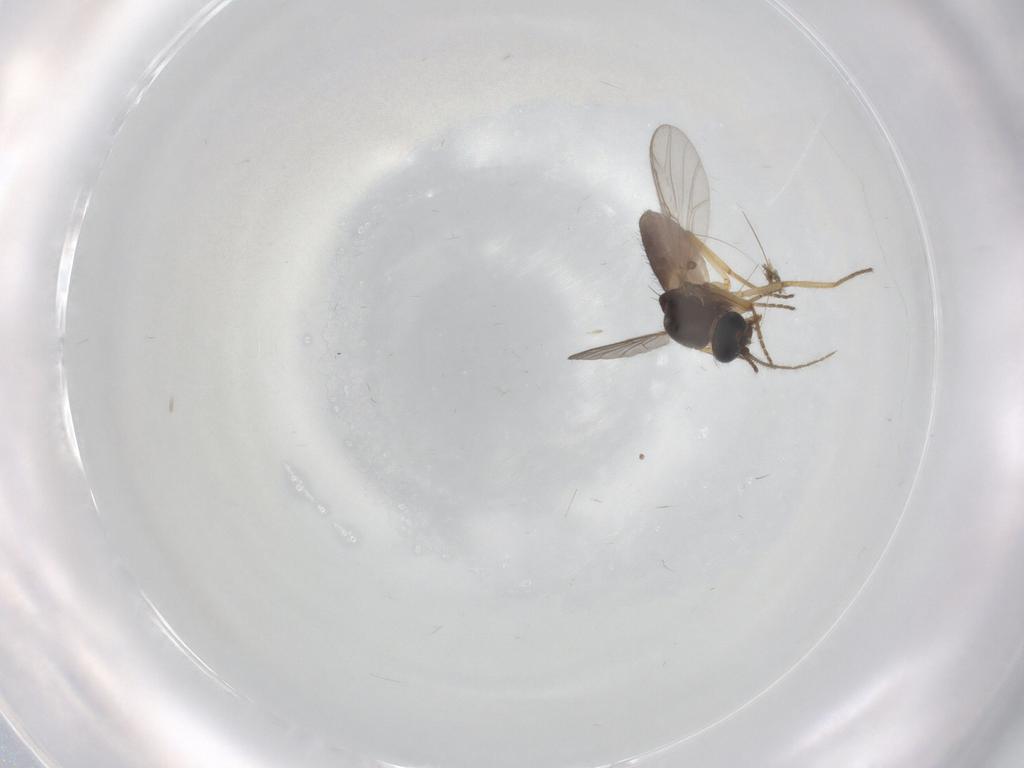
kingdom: Animalia
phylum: Arthropoda
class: Insecta
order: Diptera
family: Ceratopogonidae
